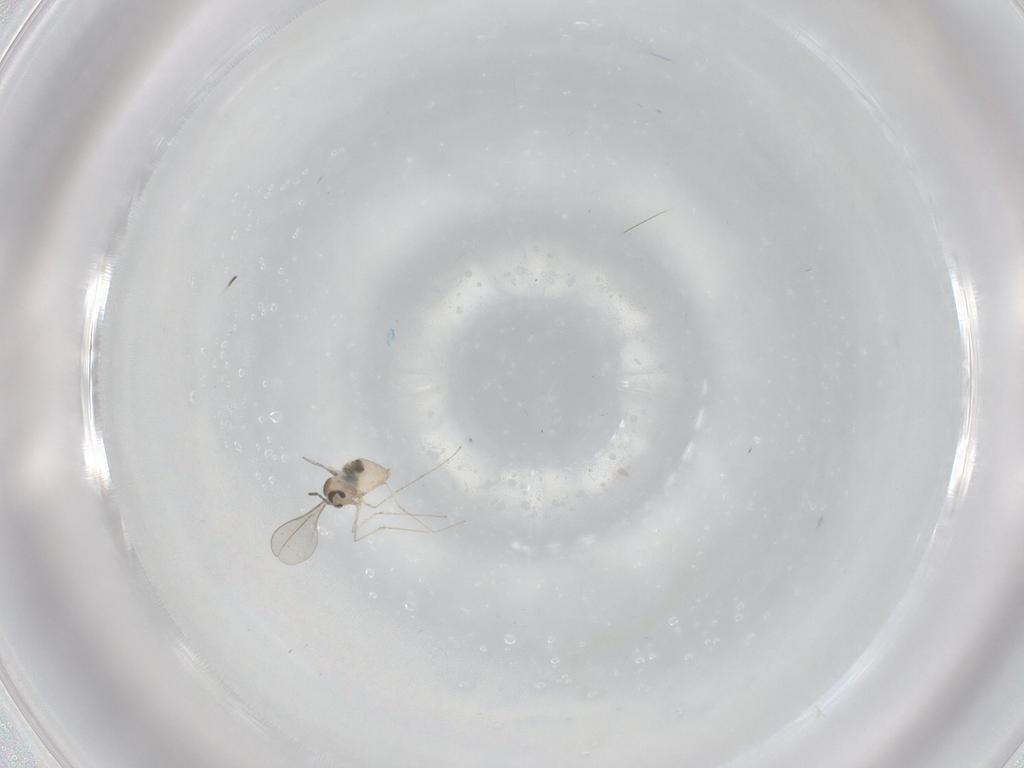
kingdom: Animalia
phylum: Arthropoda
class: Insecta
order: Diptera
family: Cecidomyiidae
